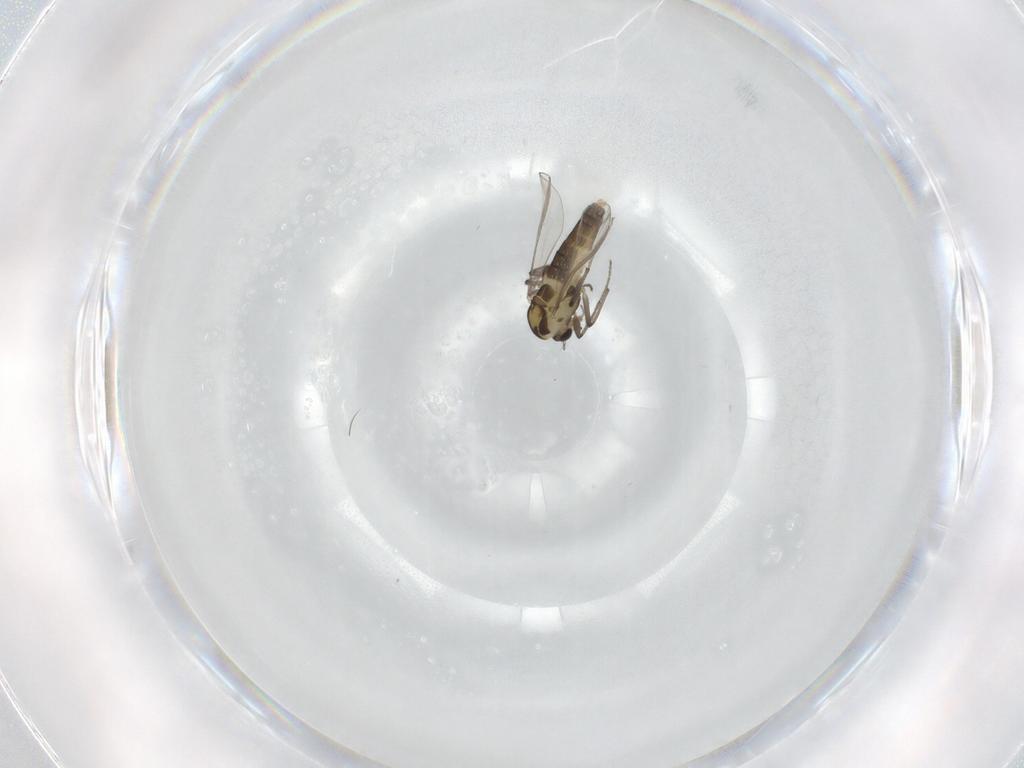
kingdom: Animalia
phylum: Arthropoda
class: Insecta
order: Diptera
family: Chironomidae
